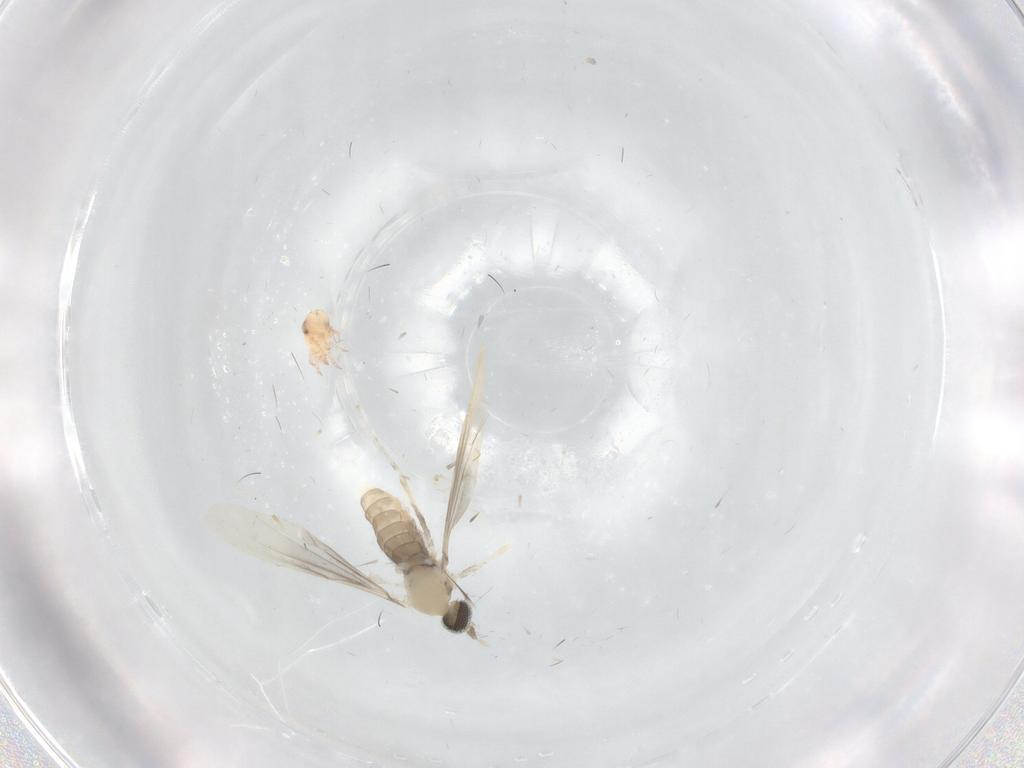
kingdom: Animalia
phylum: Arthropoda
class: Insecta
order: Diptera
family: Cecidomyiidae
